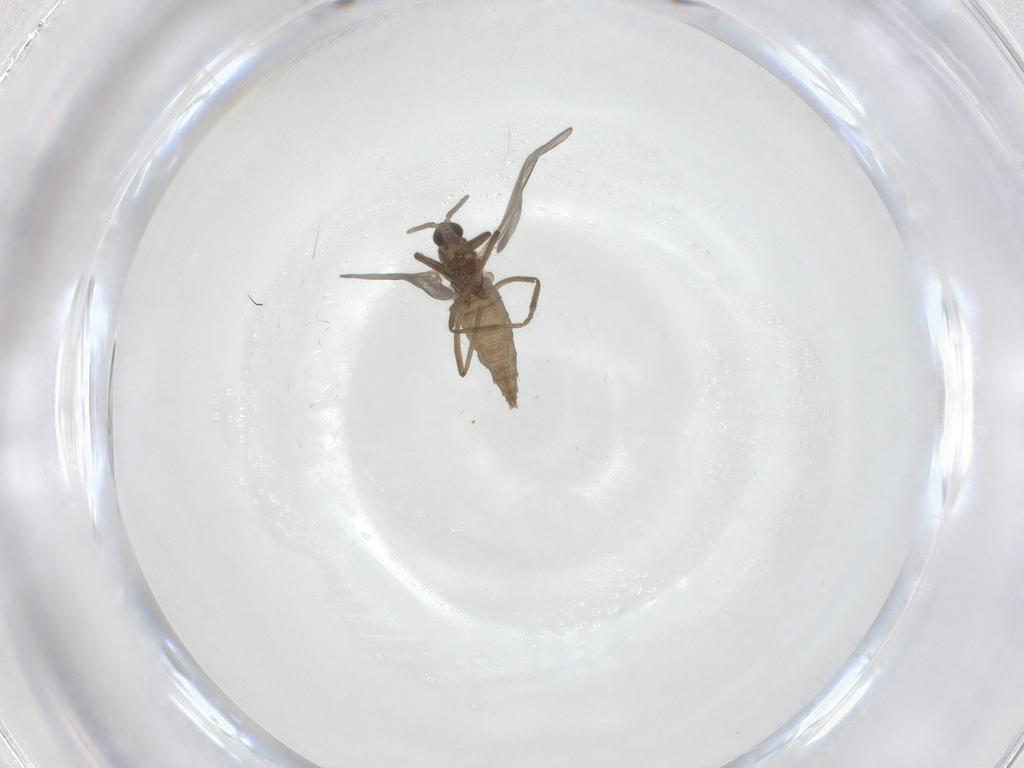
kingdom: Animalia
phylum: Arthropoda
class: Insecta
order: Diptera
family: Cecidomyiidae
